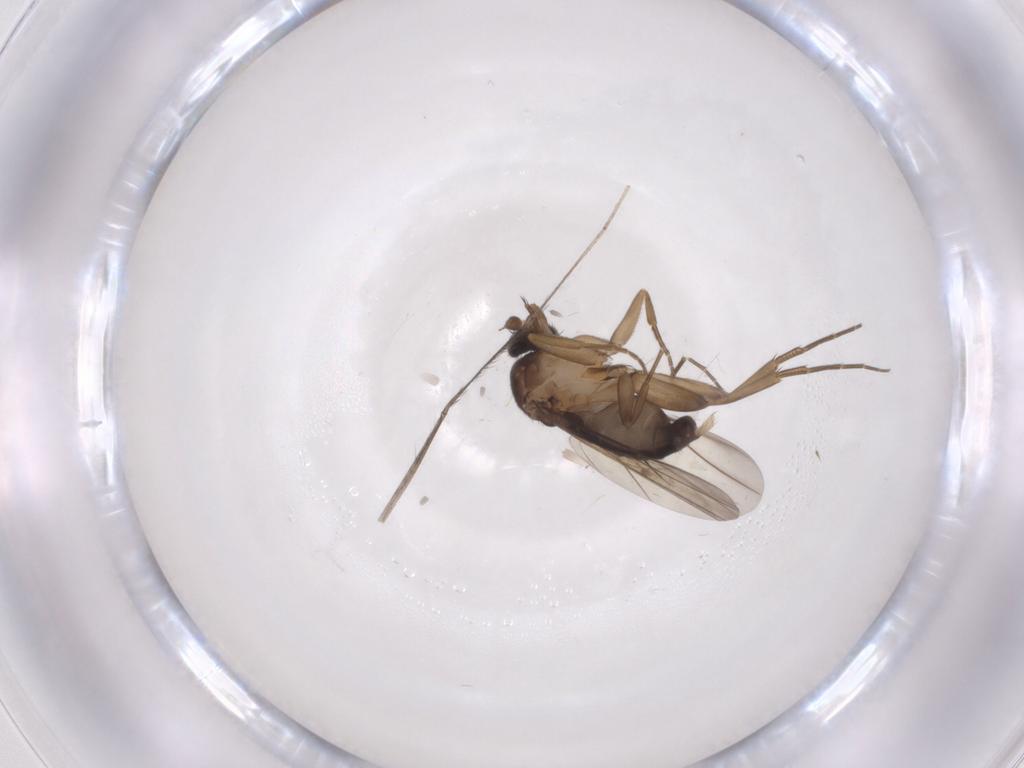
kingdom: Animalia
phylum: Arthropoda
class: Insecta
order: Diptera
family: Phoridae
